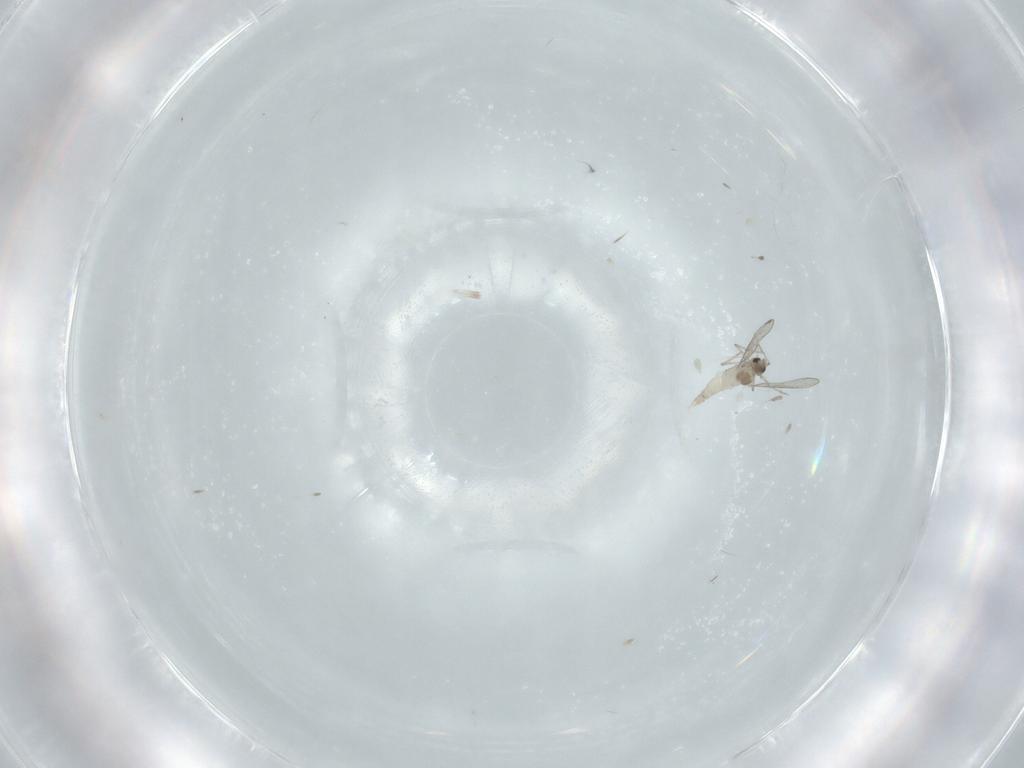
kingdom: Animalia
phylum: Arthropoda
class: Insecta
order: Diptera
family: Cecidomyiidae
